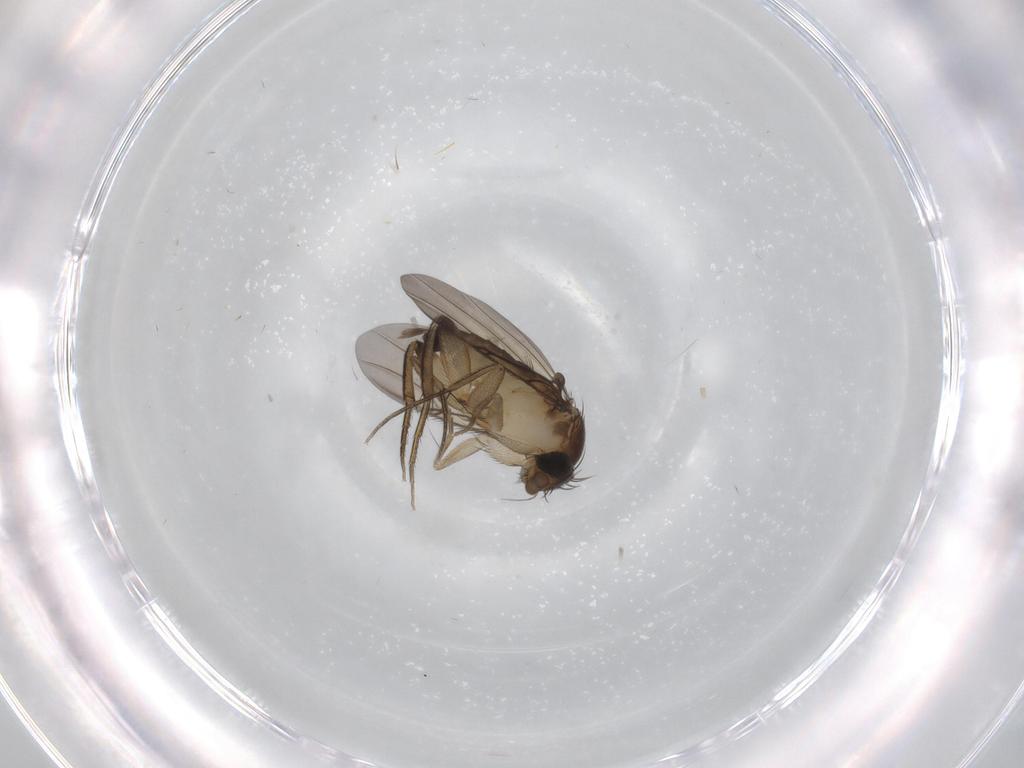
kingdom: Animalia
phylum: Arthropoda
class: Insecta
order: Diptera
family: Phoridae
